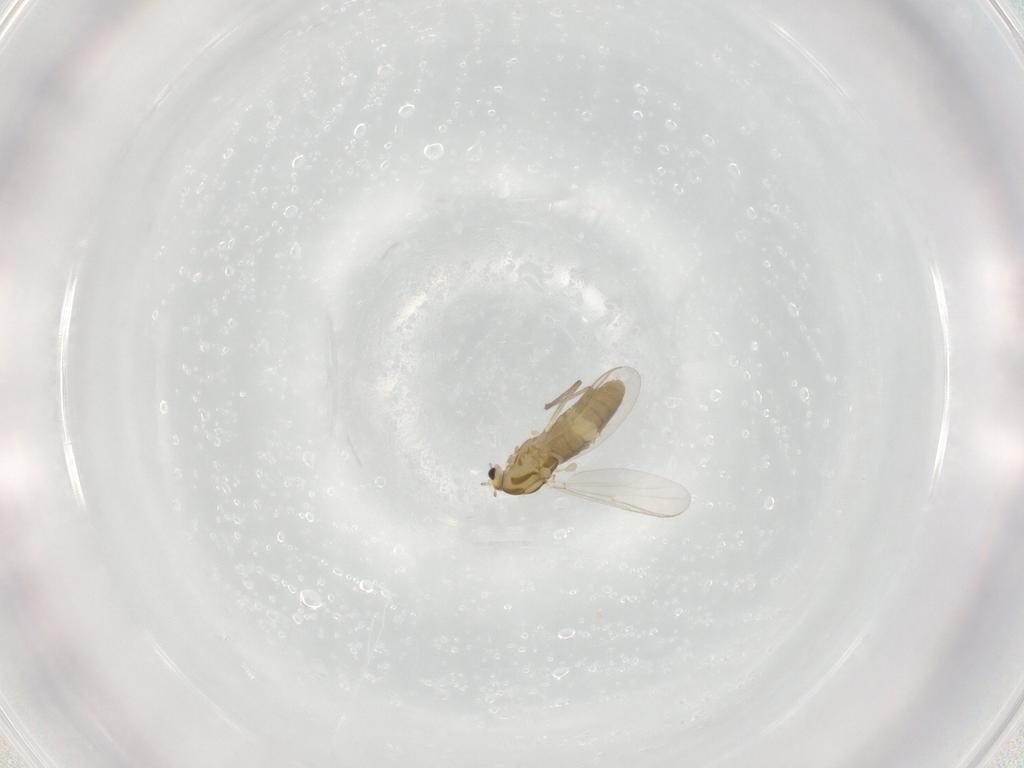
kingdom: Animalia
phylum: Arthropoda
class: Insecta
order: Diptera
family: Chironomidae
